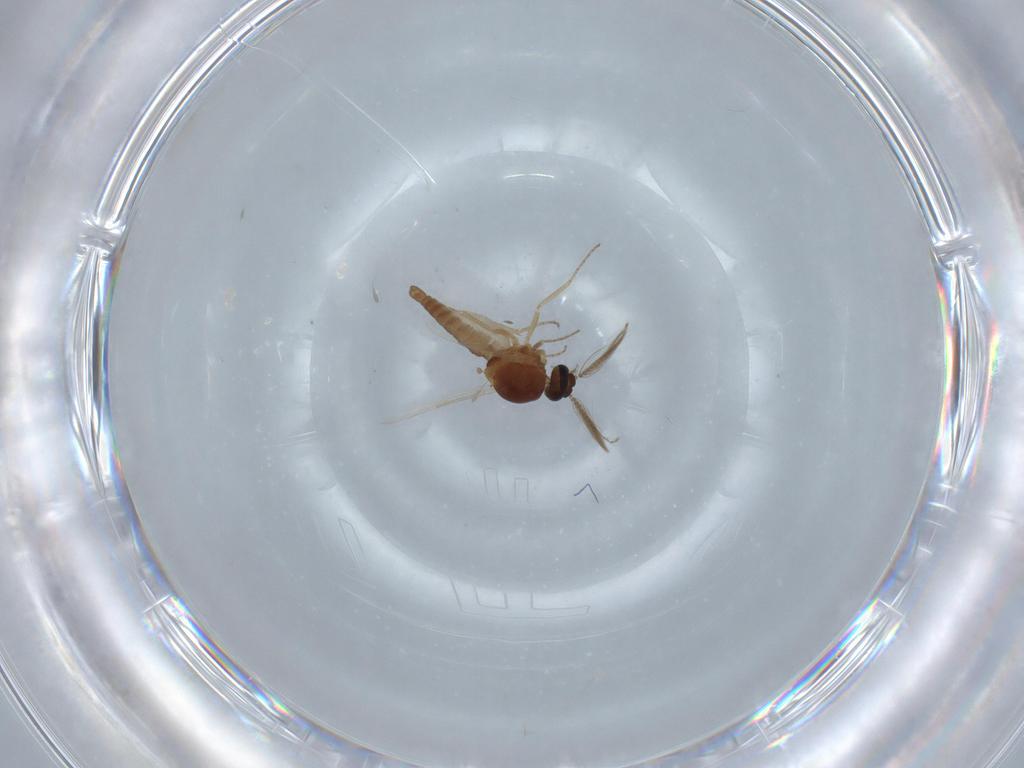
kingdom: Animalia
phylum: Arthropoda
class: Insecta
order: Diptera
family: Ceratopogonidae
